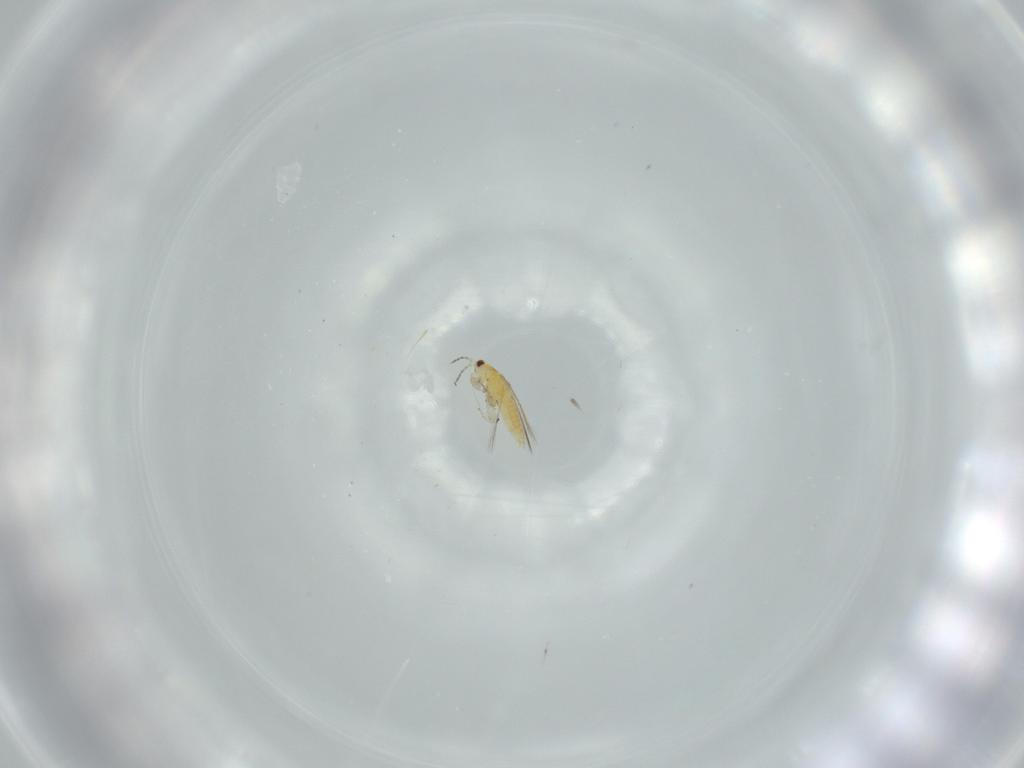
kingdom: Animalia
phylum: Arthropoda
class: Insecta
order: Thysanoptera
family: Thripidae
